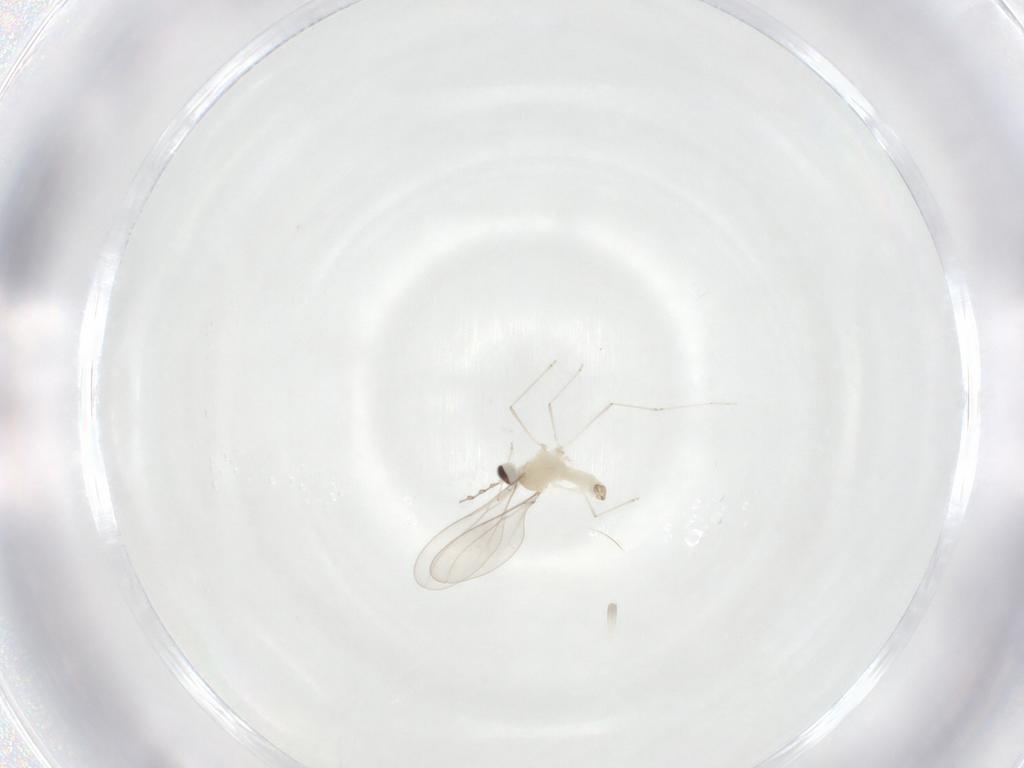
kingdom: Animalia
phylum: Arthropoda
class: Insecta
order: Diptera
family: Cecidomyiidae
